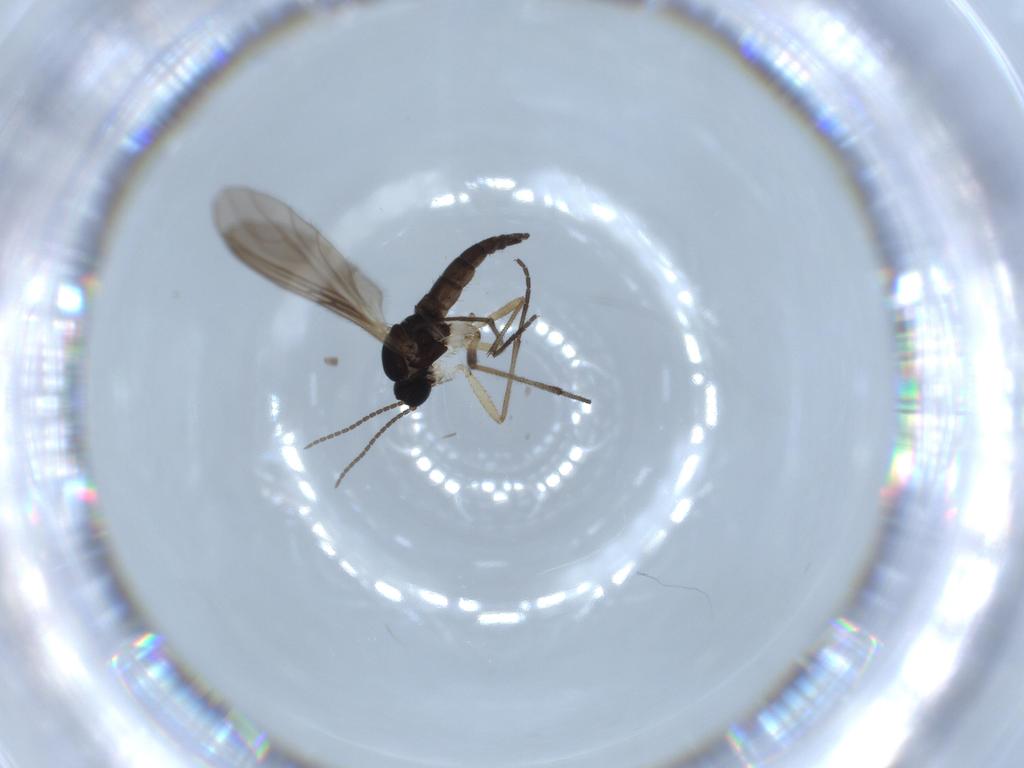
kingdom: Animalia
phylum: Arthropoda
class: Insecta
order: Diptera
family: Sciaridae
